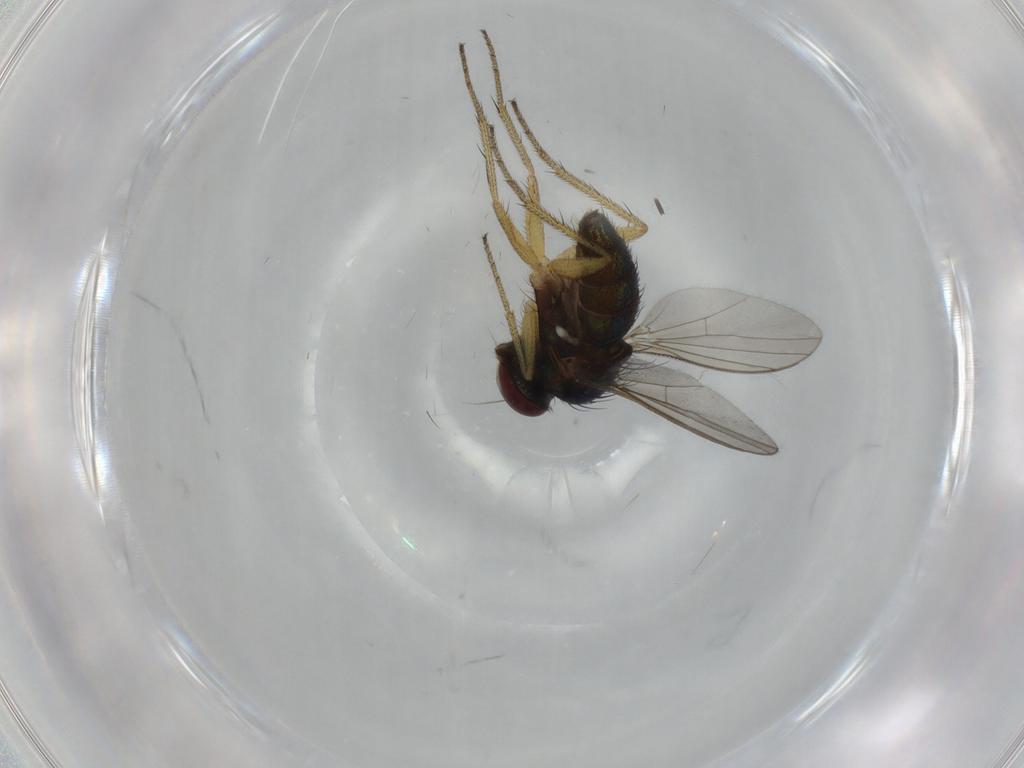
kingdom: Animalia
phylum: Arthropoda
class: Insecta
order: Diptera
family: Dolichopodidae
